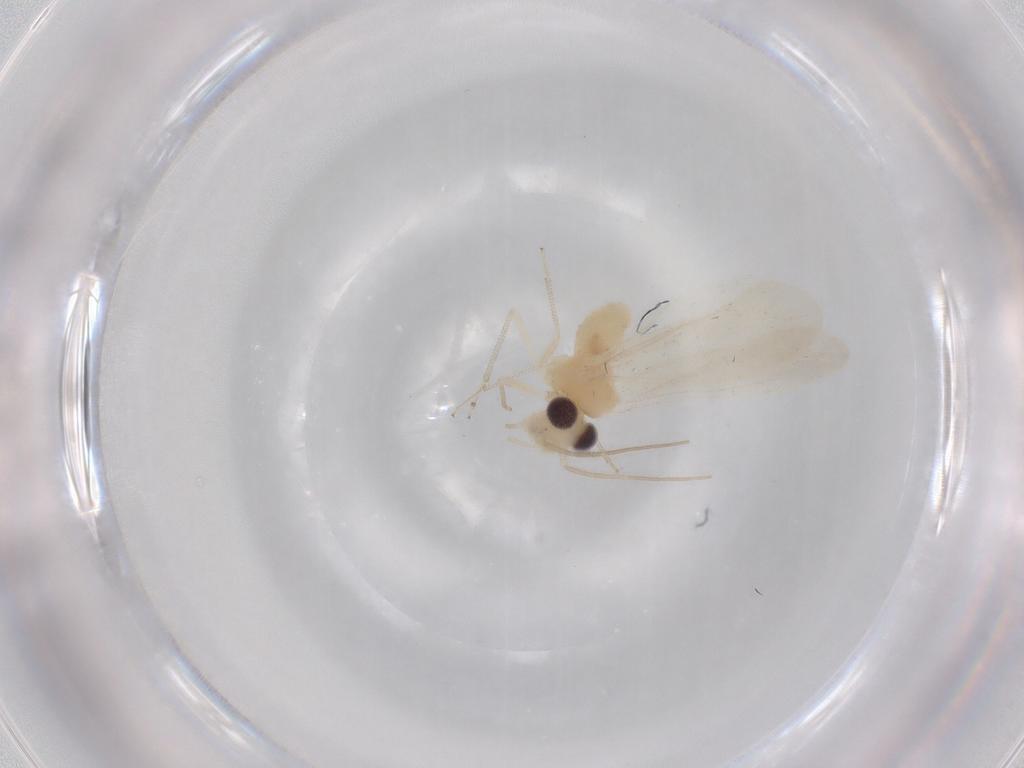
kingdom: Animalia
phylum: Arthropoda
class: Insecta
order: Psocodea
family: Caeciliusidae
